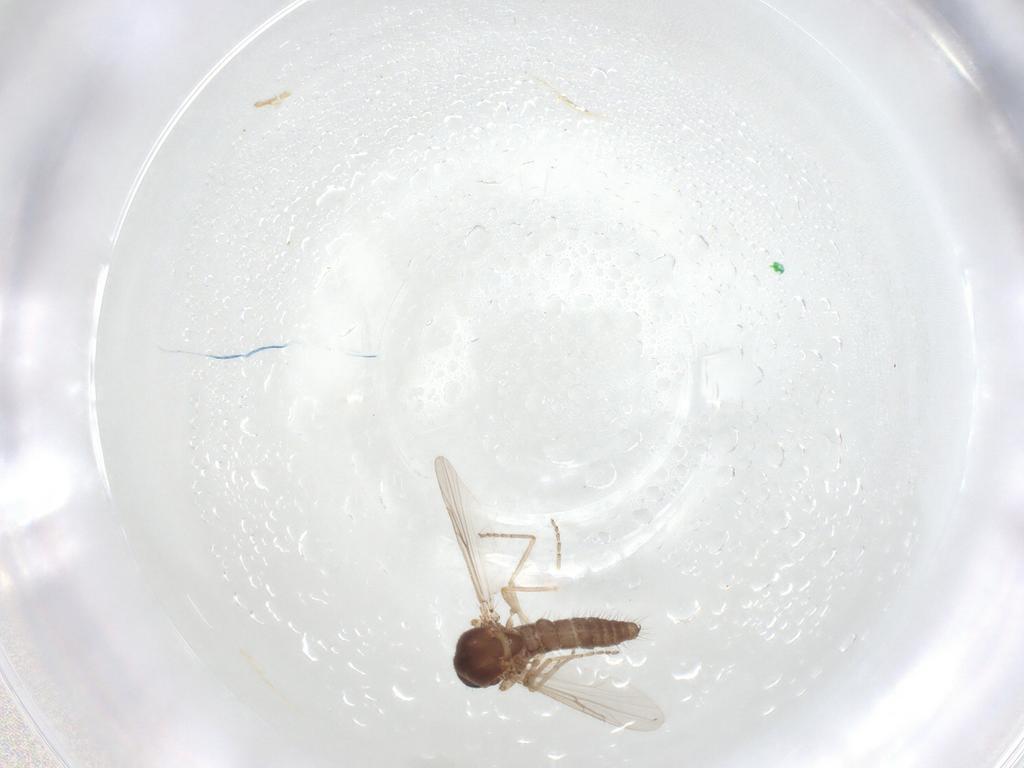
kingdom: Animalia
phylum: Arthropoda
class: Insecta
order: Diptera
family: Ceratopogonidae
